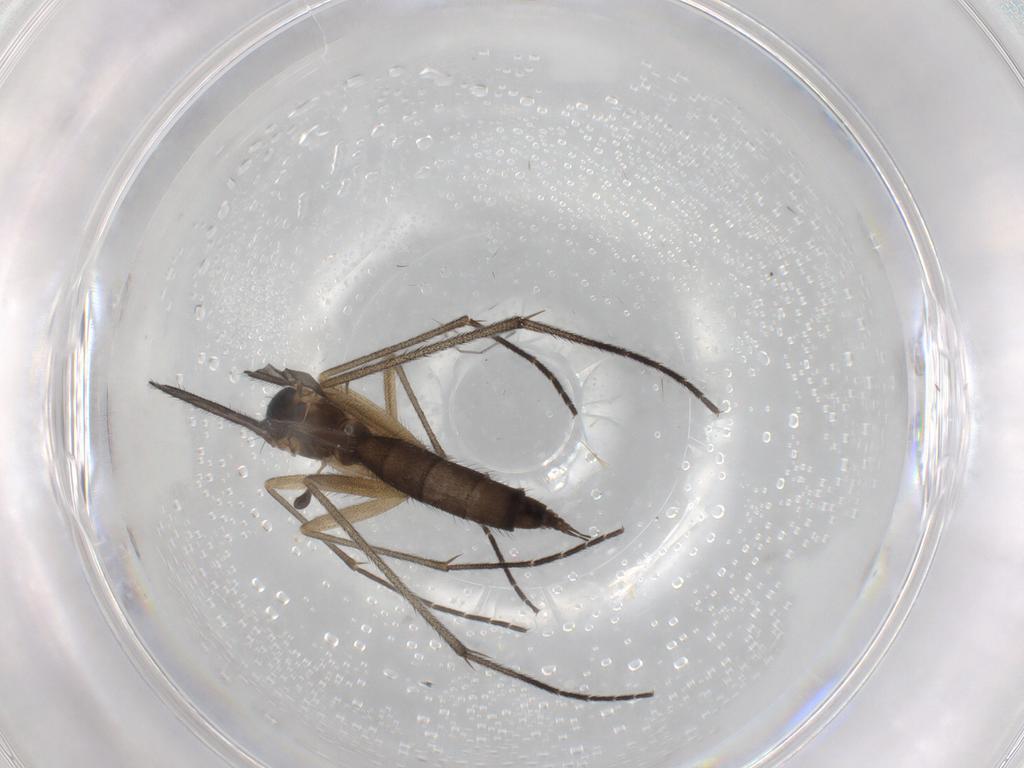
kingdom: Animalia
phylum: Arthropoda
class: Insecta
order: Diptera
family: Sciaridae
